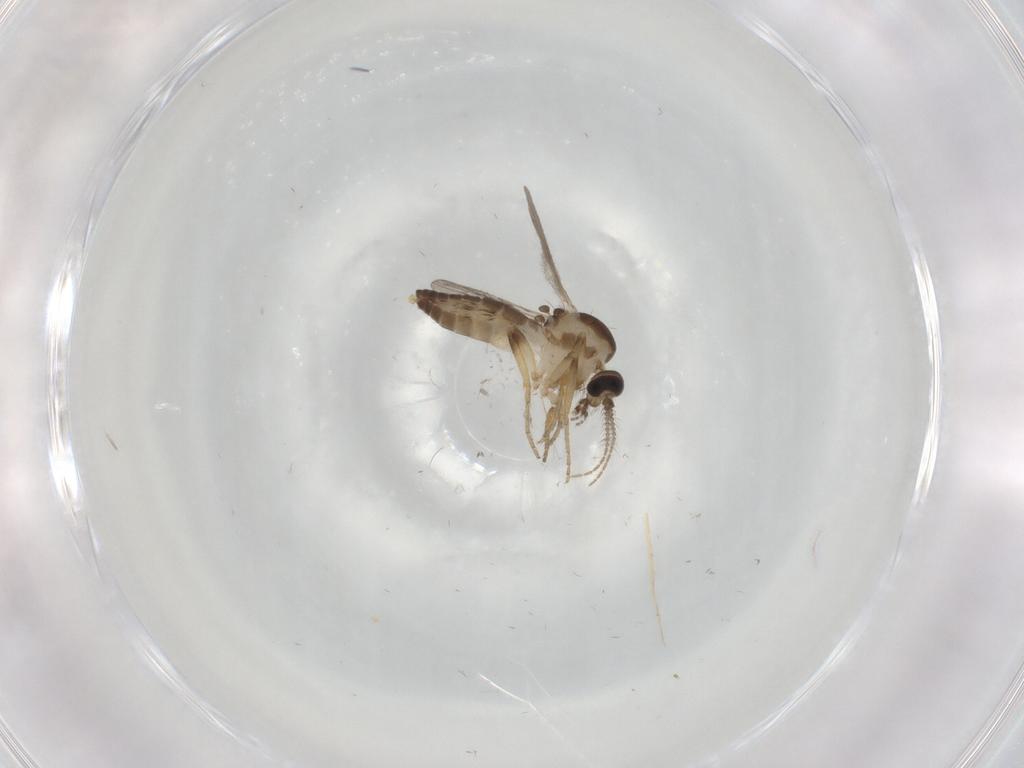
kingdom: Animalia
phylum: Arthropoda
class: Insecta
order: Diptera
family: Ceratopogonidae
